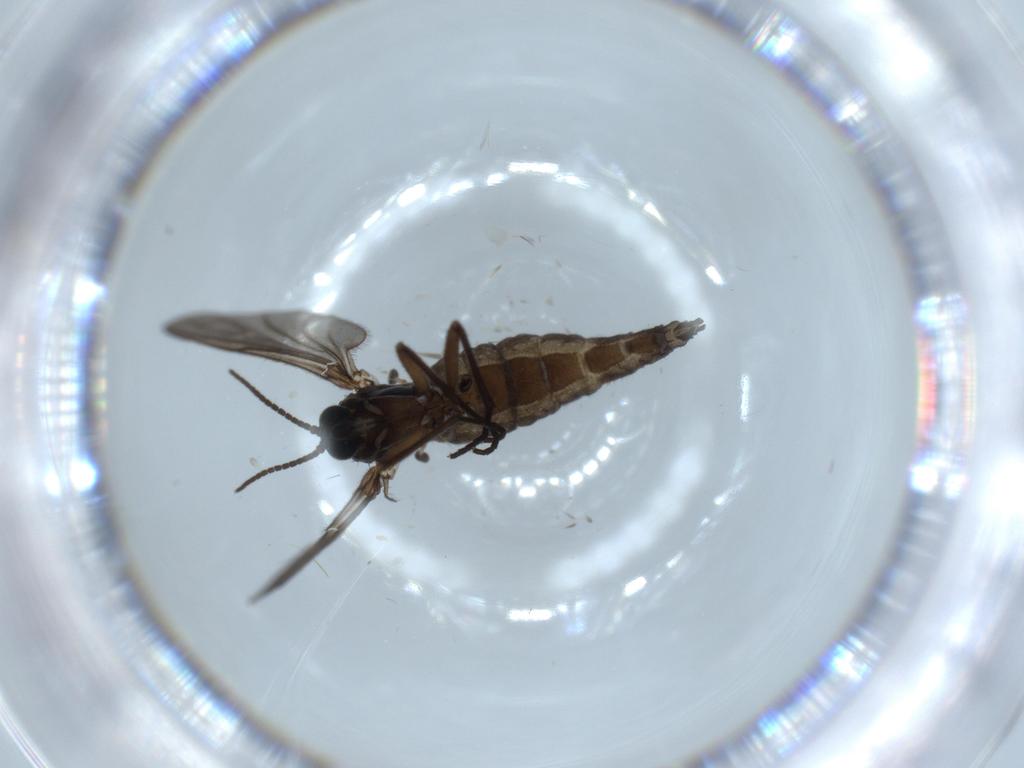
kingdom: Animalia
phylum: Arthropoda
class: Insecta
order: Diptera
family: Sciaridae
